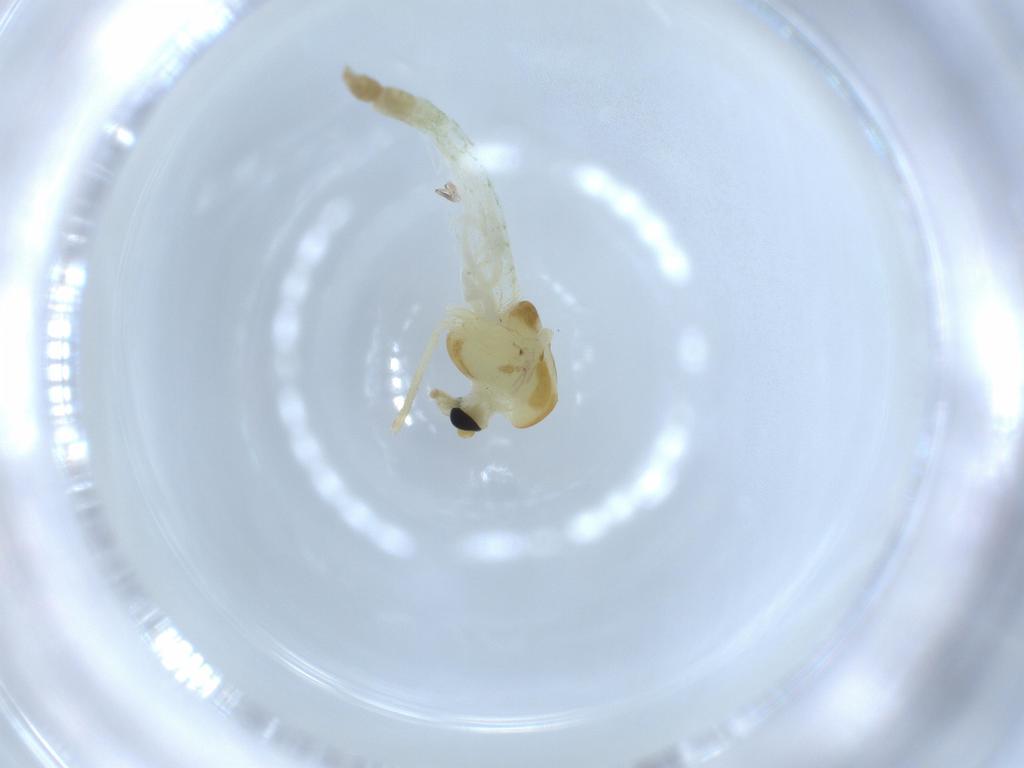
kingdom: Animalia
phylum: Arthropoda
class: Insecta
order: Diptera
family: Chironomidae
